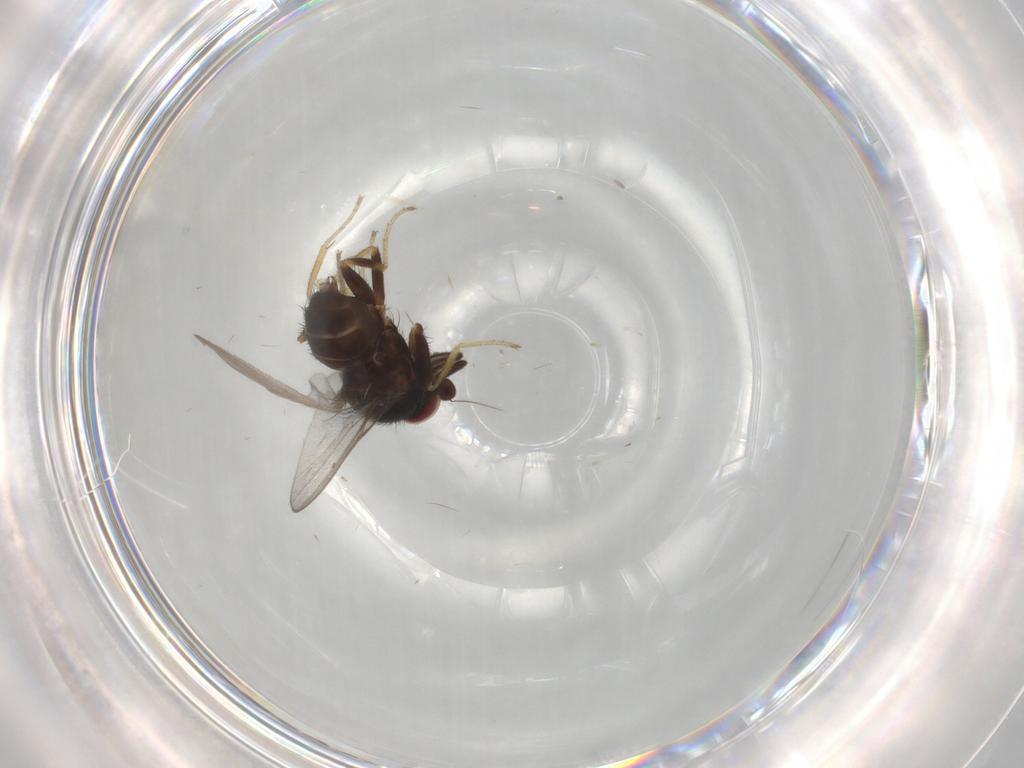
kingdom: Animalia
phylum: Arthropoda
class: Insecta
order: Diptera
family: Milichiidae
